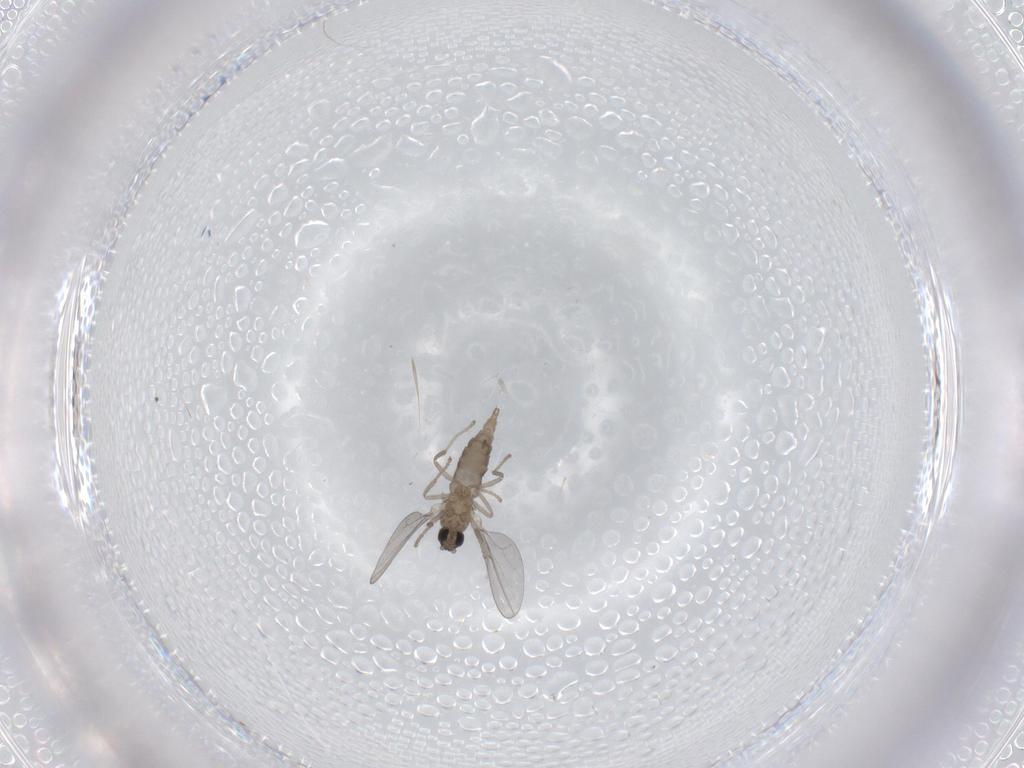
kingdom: Animalia
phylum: Arthropoda
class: Insecta
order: Diptera
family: Cecidomyiidae
